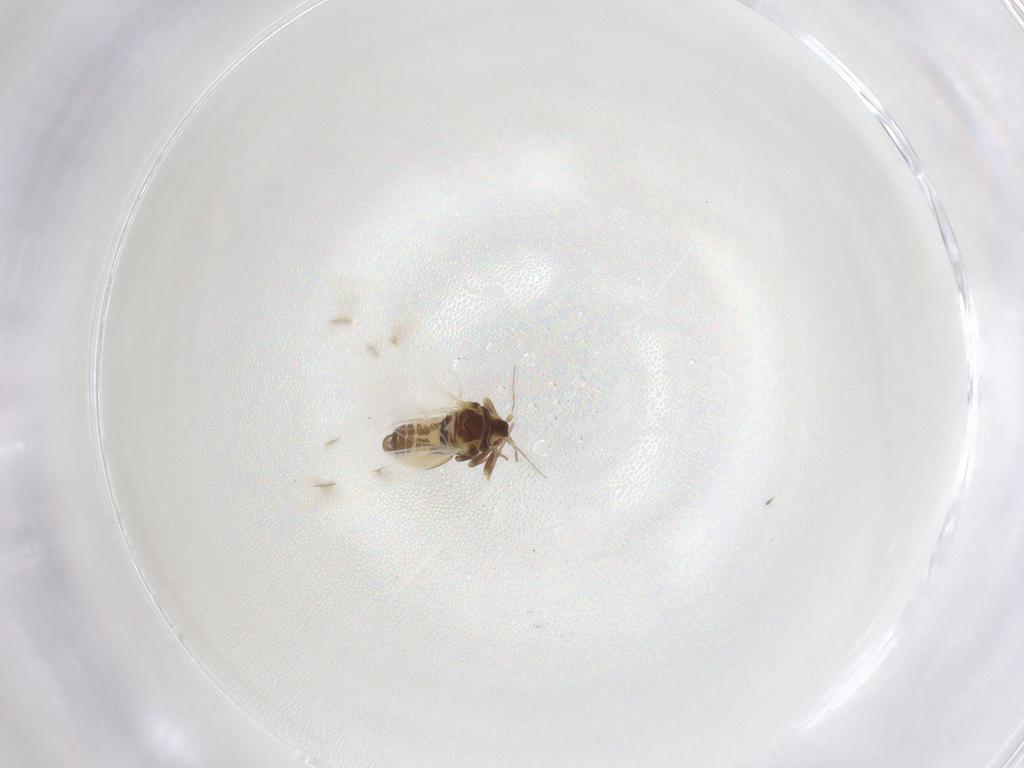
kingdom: Animalia
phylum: Arthropoda
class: Insecta
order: Hemiptera
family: Aleyrodidae
